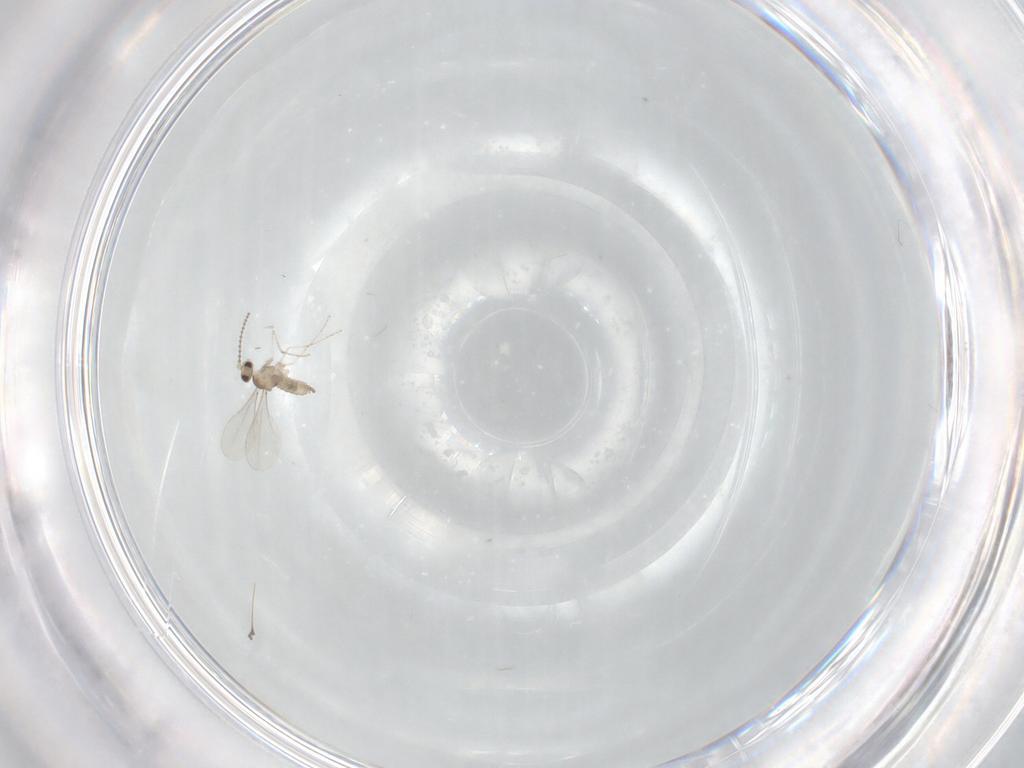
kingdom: Animalia
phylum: Arthropoda
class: Insecta
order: Diptera
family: Cecidomyiidae
